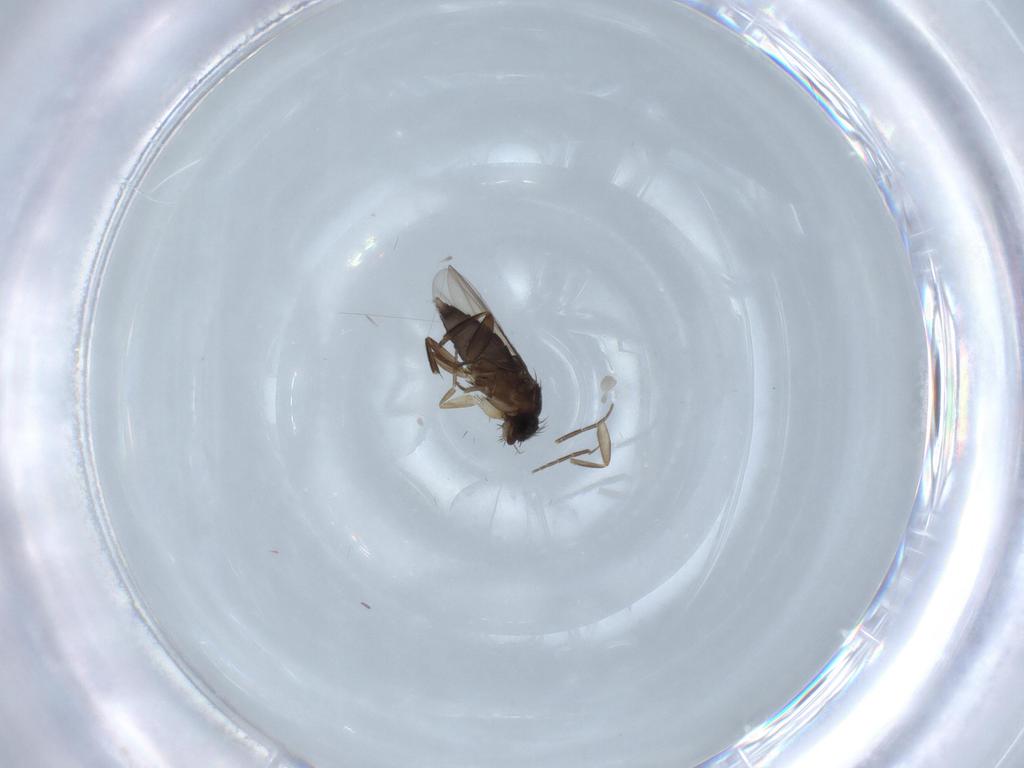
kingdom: Animalia
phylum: Arthropoda
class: Insecta
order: Diptera
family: Phoridae
